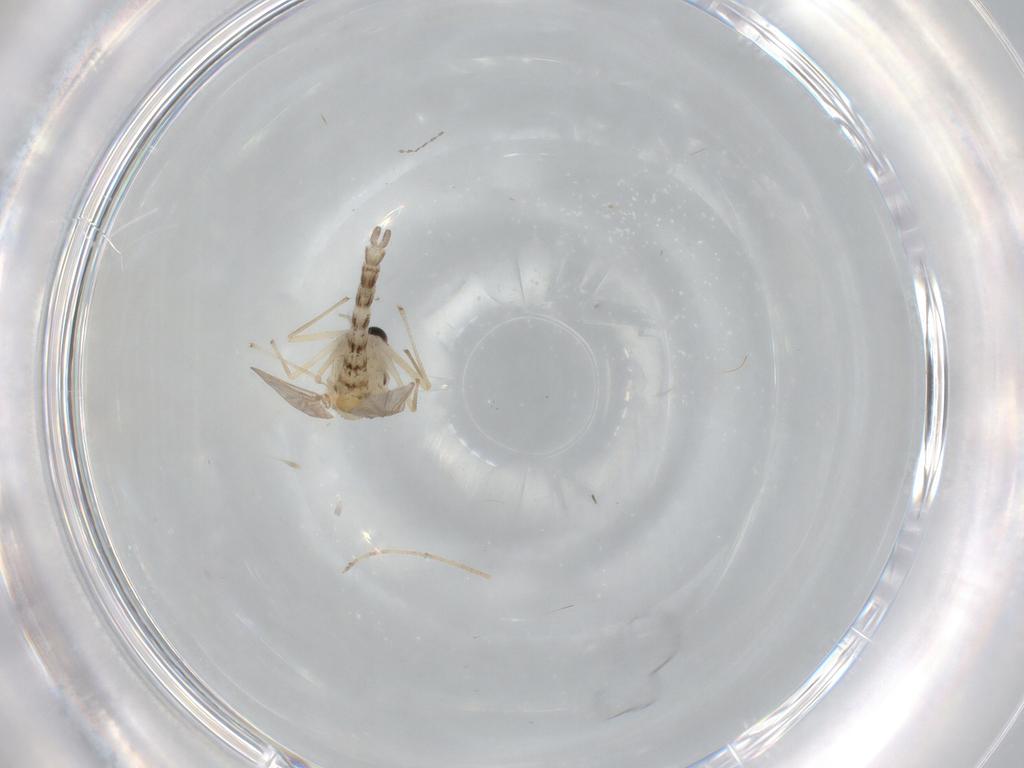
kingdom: Animalia
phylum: Arthropoda
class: Insecta
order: Diptera
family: Chironomidae
